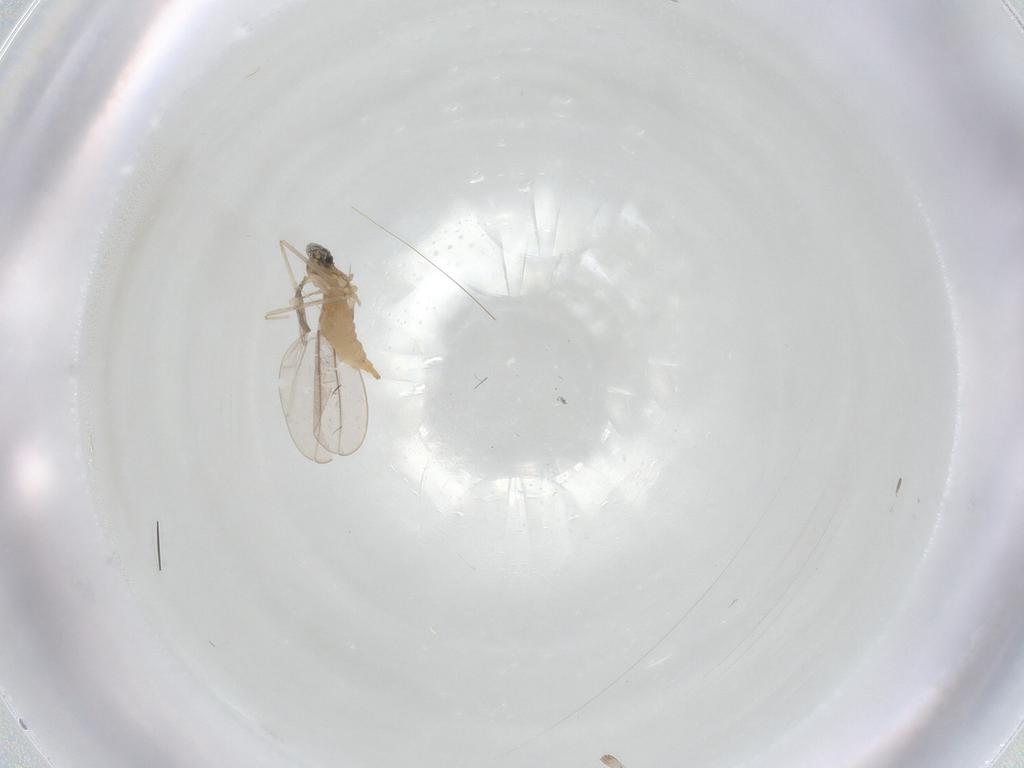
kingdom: Animalia
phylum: Arthropoda
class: Insecta
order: Diptera
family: Cecidomyiidae
